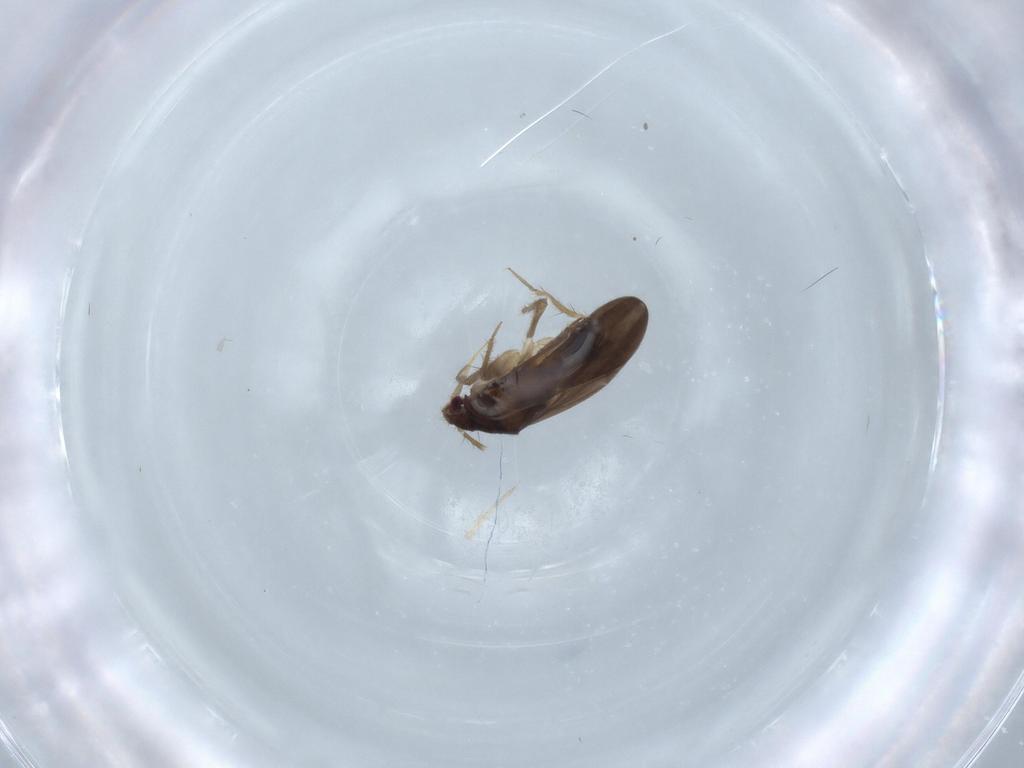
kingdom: Animalia
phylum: Arthropoda
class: Insecta
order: Hemiptera
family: Ceratocombidae
